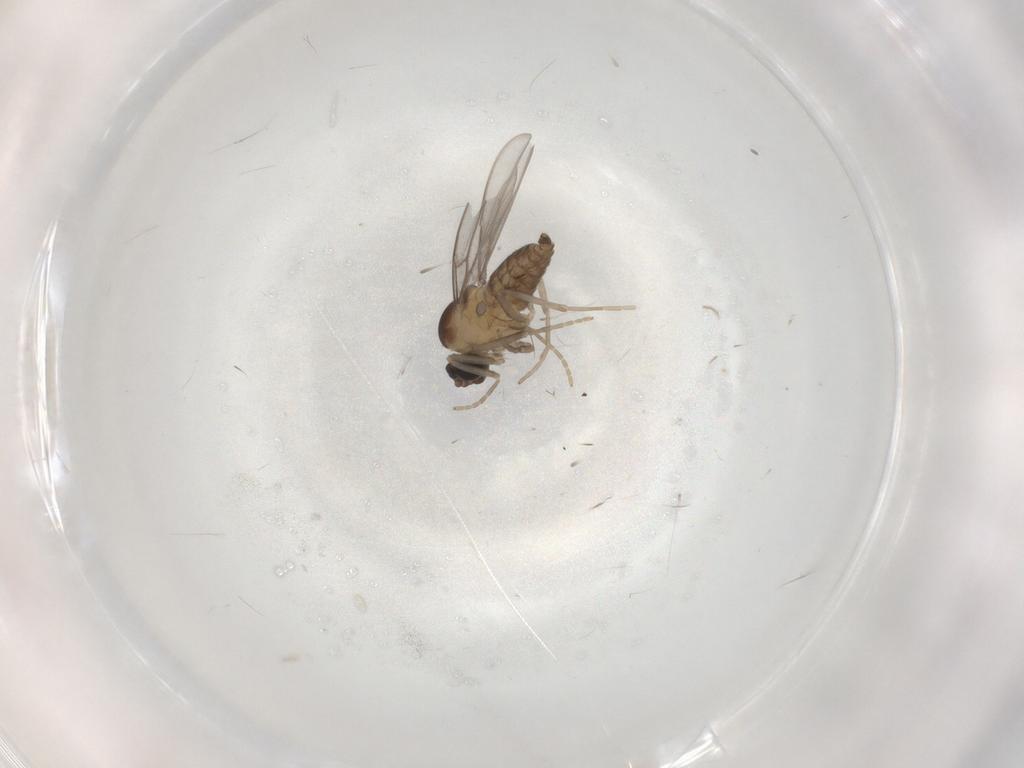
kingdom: Animalia
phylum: Arthropoda
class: Insecta
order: Diptera
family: Cecidomyiidae
